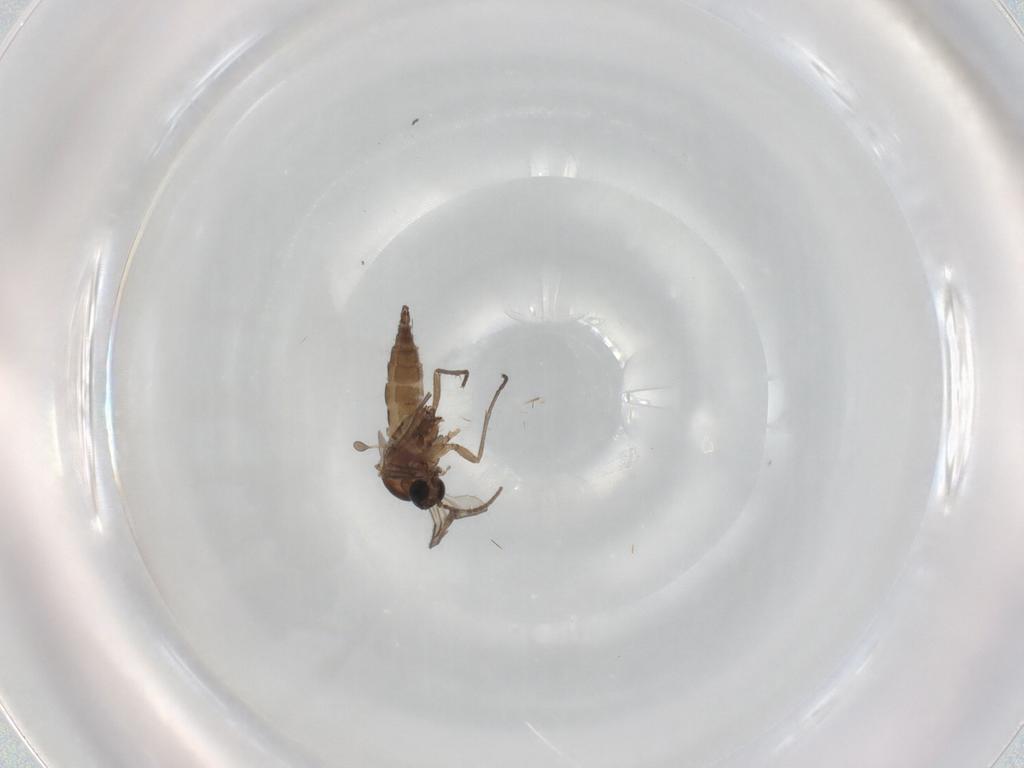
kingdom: Animalia
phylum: Arthropoda
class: Insecta
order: Diptera
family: Sciaridae
